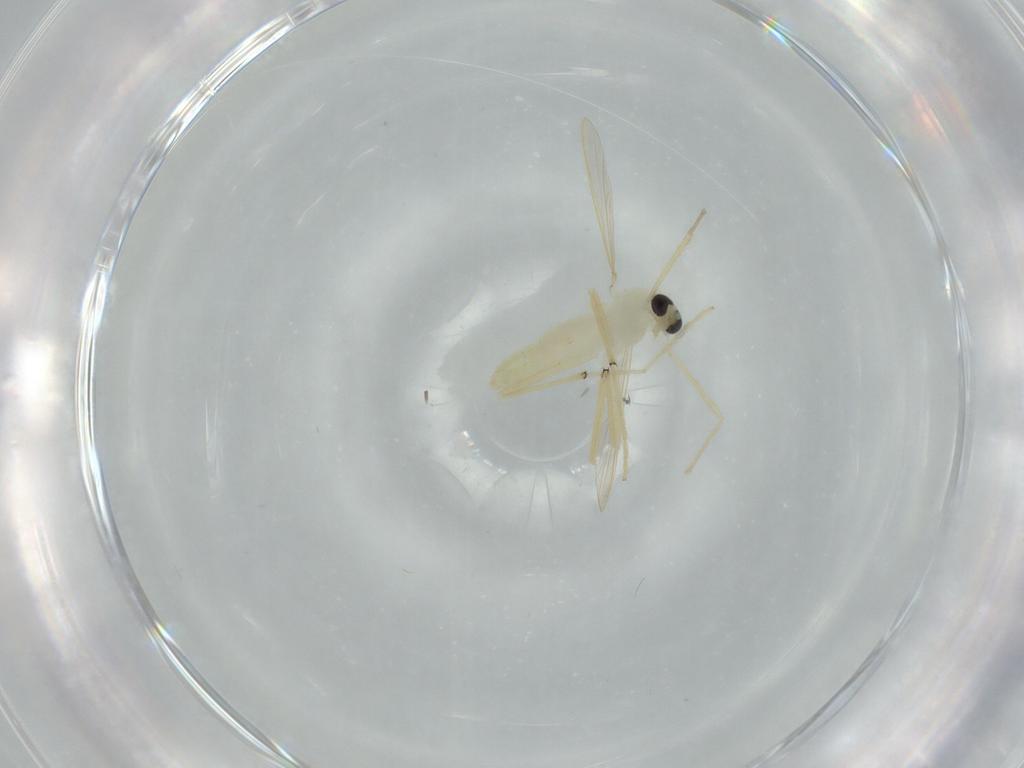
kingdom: Animalia
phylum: Arthropoda
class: Insecta
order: Diptera
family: Chironomidae
